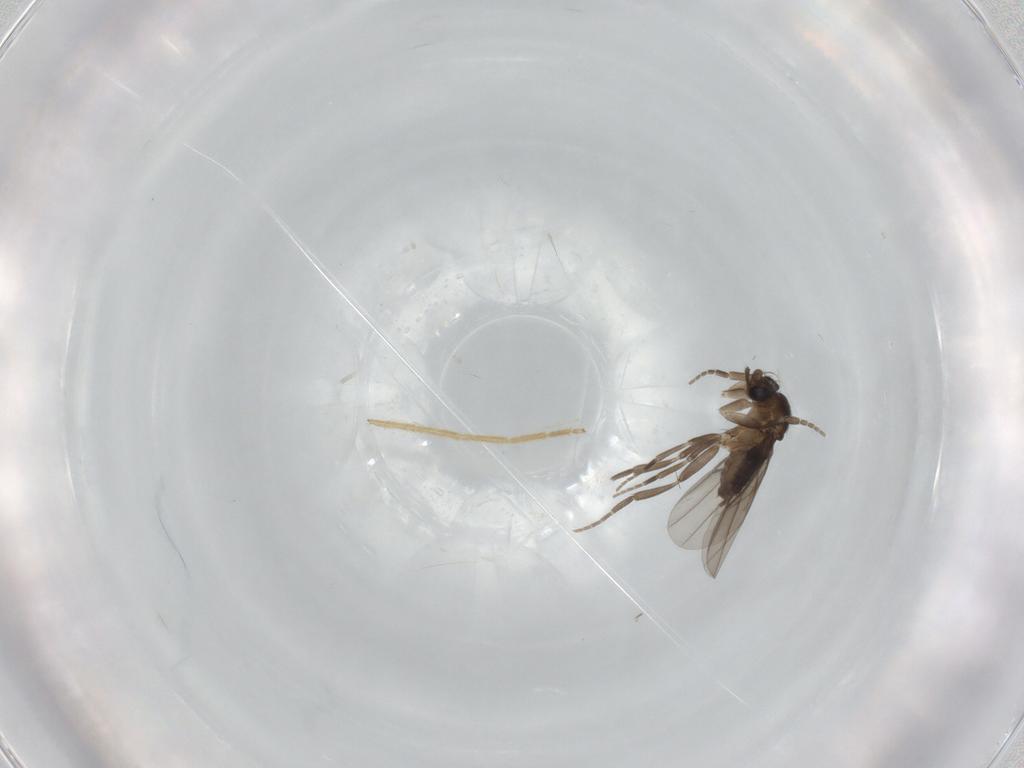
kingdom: Animalia
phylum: Arthropoda
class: Insecta
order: Diptera
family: Phoridae
